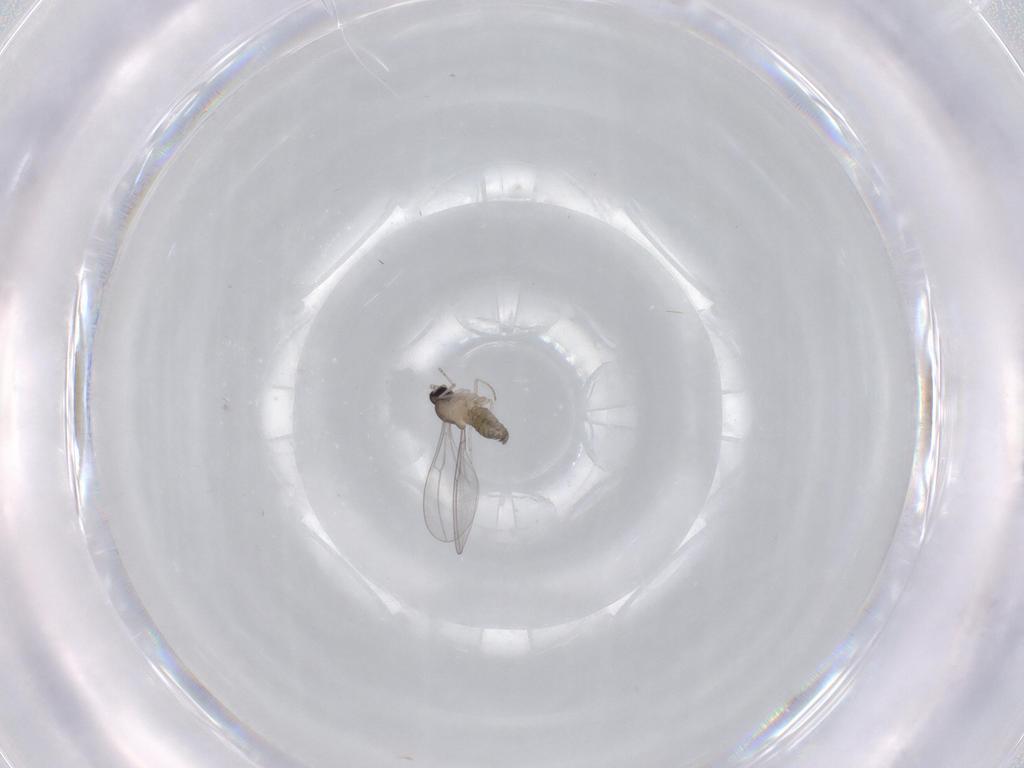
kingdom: Animalia
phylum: Arthropoda
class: Insecta
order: Diptera
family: Cecidomyiidae
